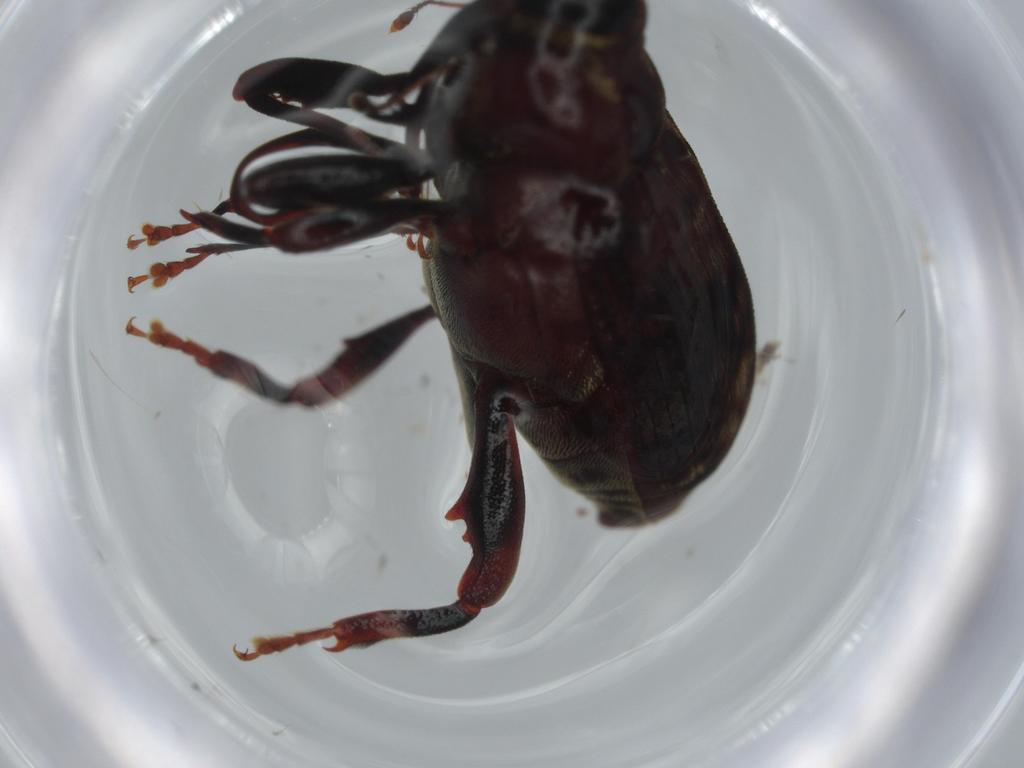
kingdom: Animalia
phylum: Arthropoda
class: Insecta
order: Coleoptera
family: Curculionidae
